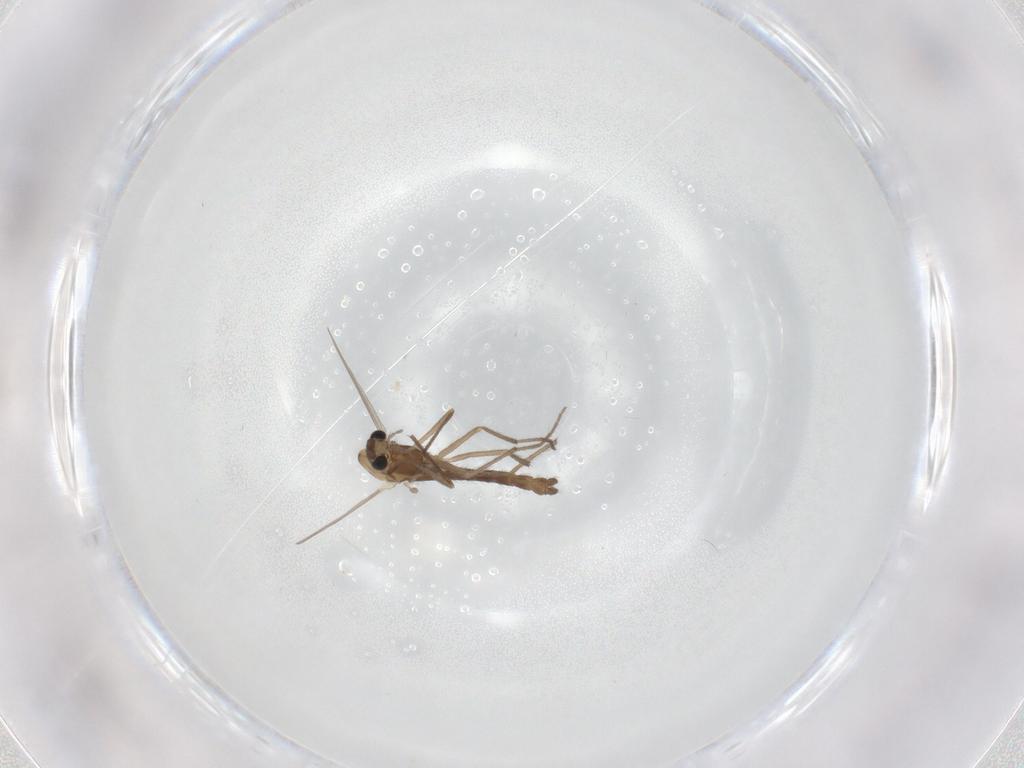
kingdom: Animalia
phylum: Arthropoda
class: Insecta
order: Diptera
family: Chironomidae
